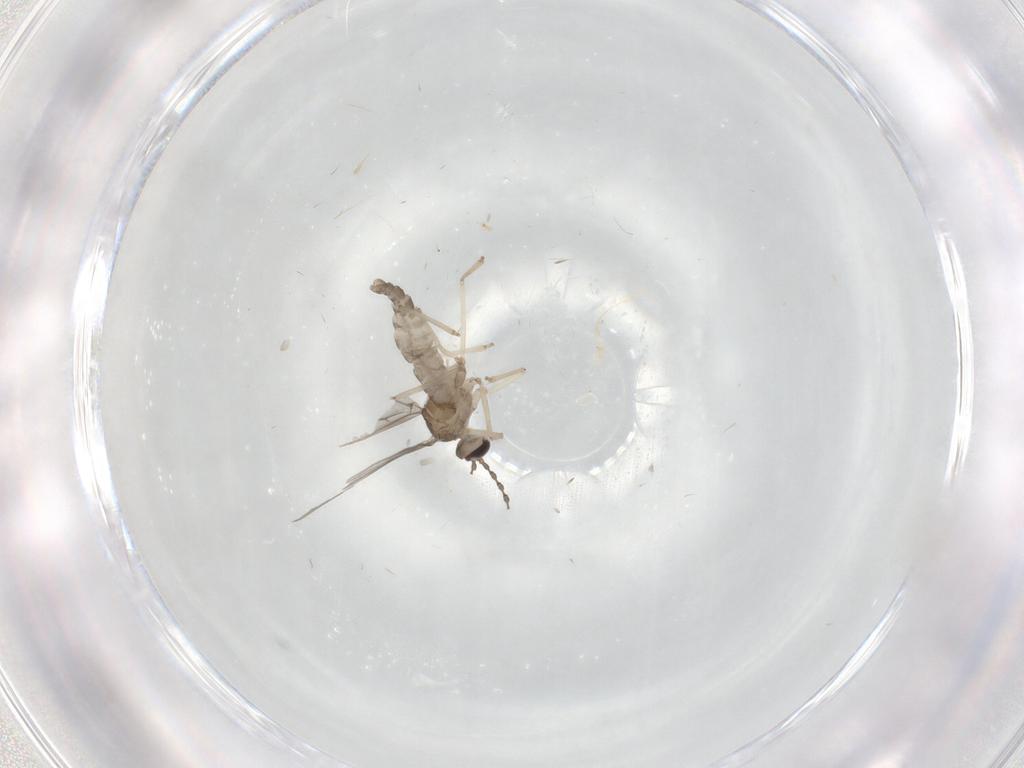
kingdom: Animalia
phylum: Arthropoda
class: Insecta
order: Diptera
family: Cecidomyiidae
